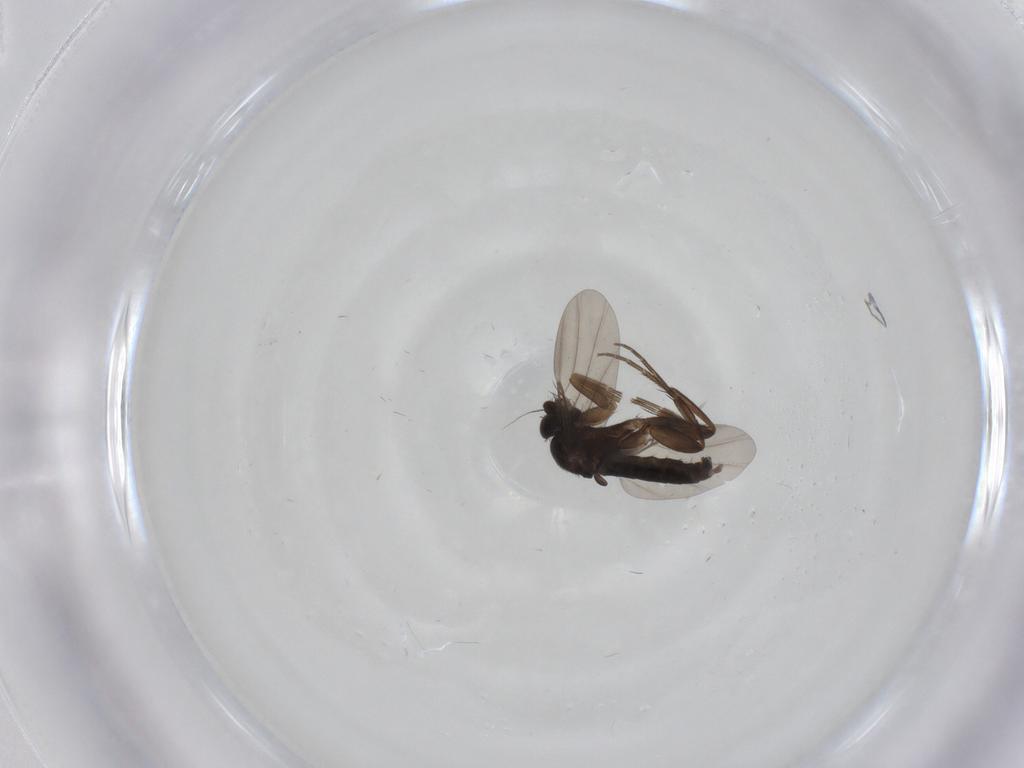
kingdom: Animalia
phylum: Arthropoda
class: Insecta
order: Diptera
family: Phoridae
